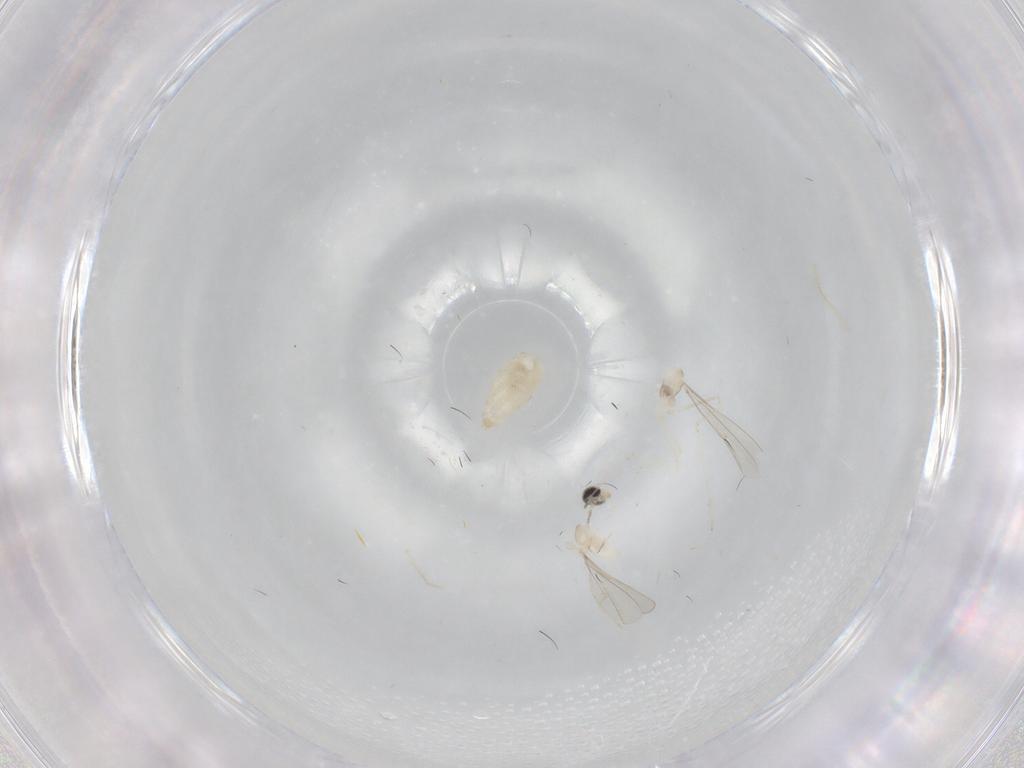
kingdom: Animalia
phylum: Arthropoda
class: Insecta
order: Diptera
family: Cecidomyiidae
